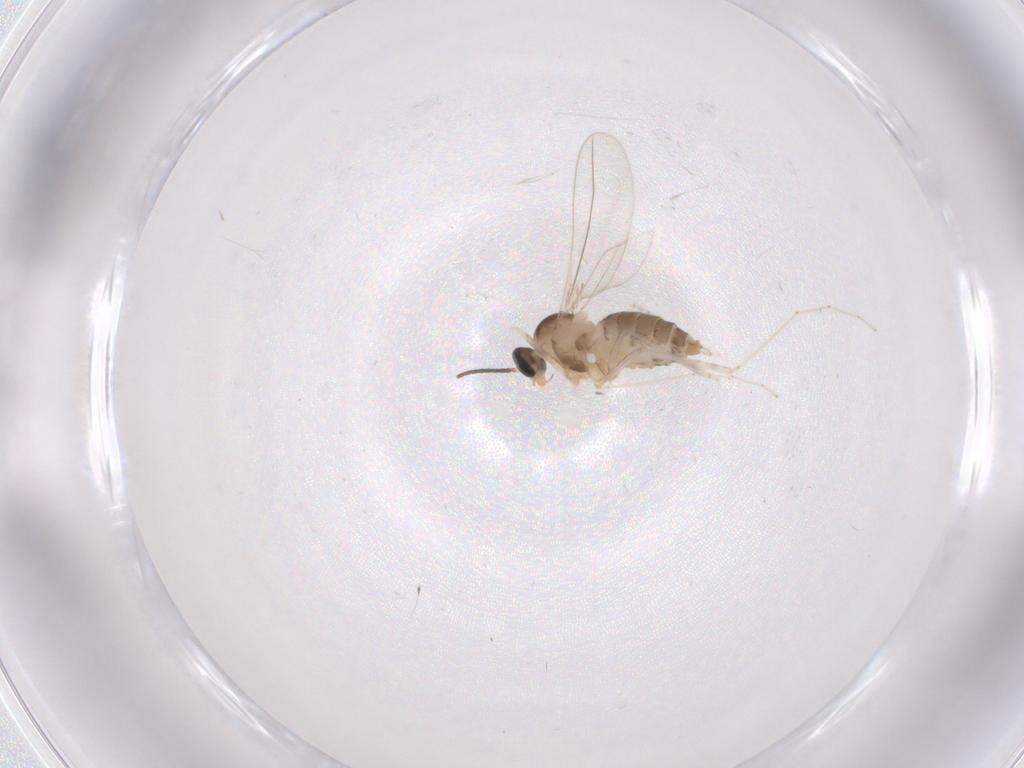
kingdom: Animalia
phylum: Arthropoda
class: Insecta
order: Diptera
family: Cecidomyiidae
